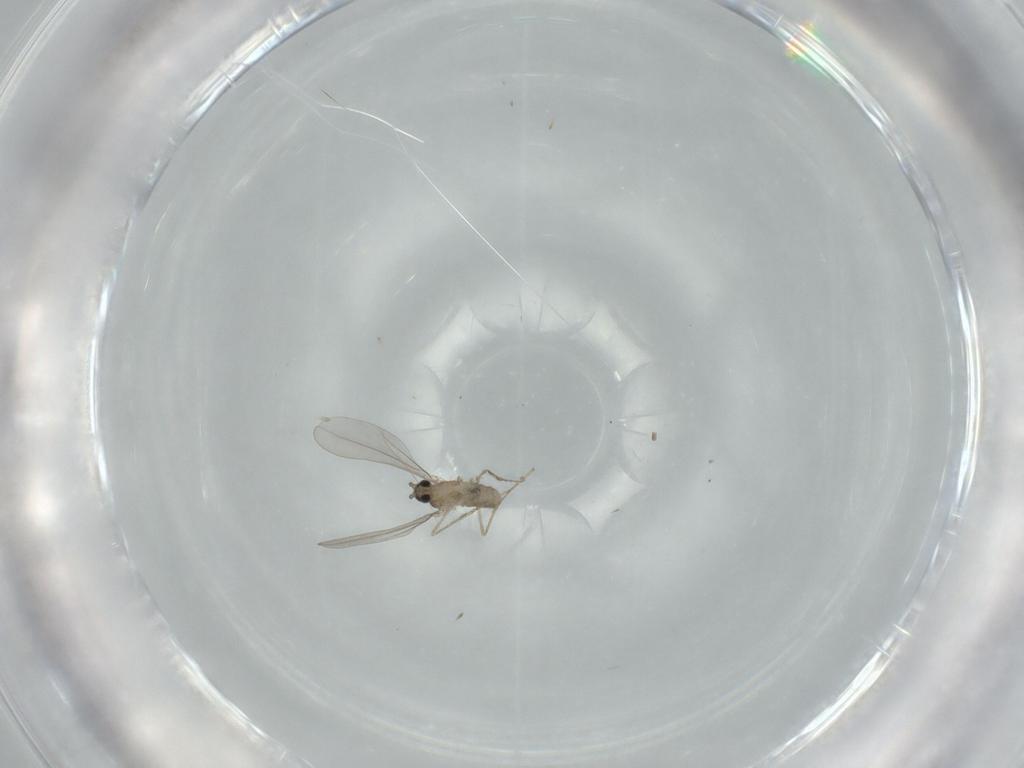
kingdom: Animalia
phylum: Arthropoda
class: Insecta
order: Diptera
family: Cecidomyiidae
